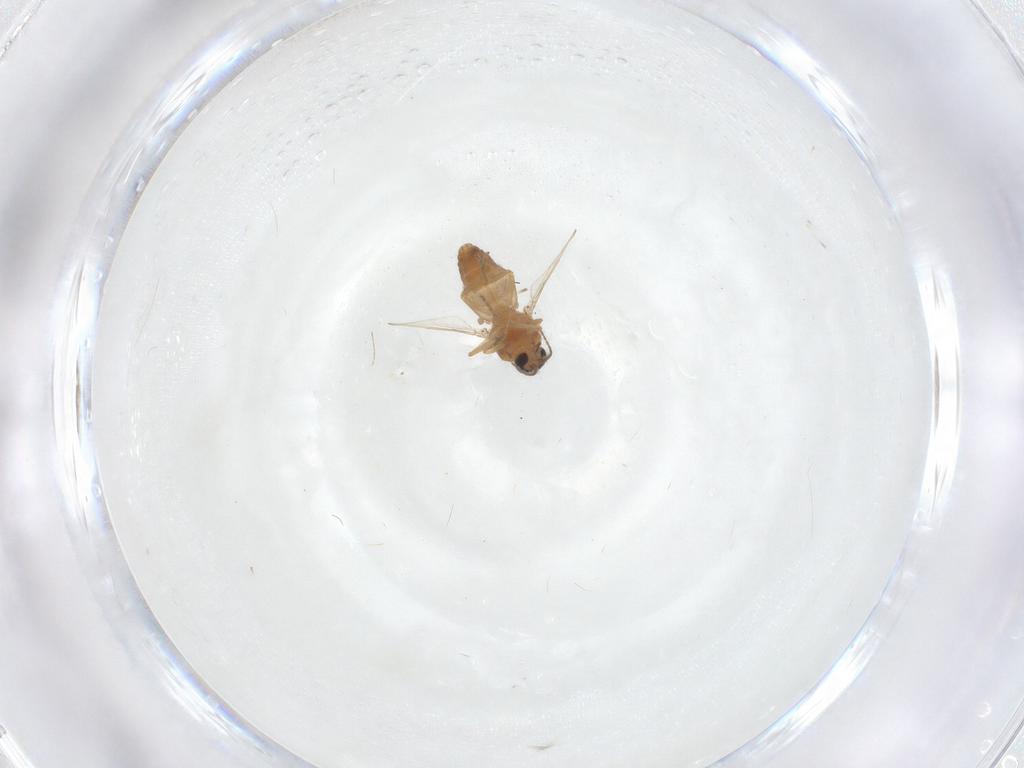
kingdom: Animalia
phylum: Arthropoda
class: Insecta
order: Diptera
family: Ceratopogonidae
